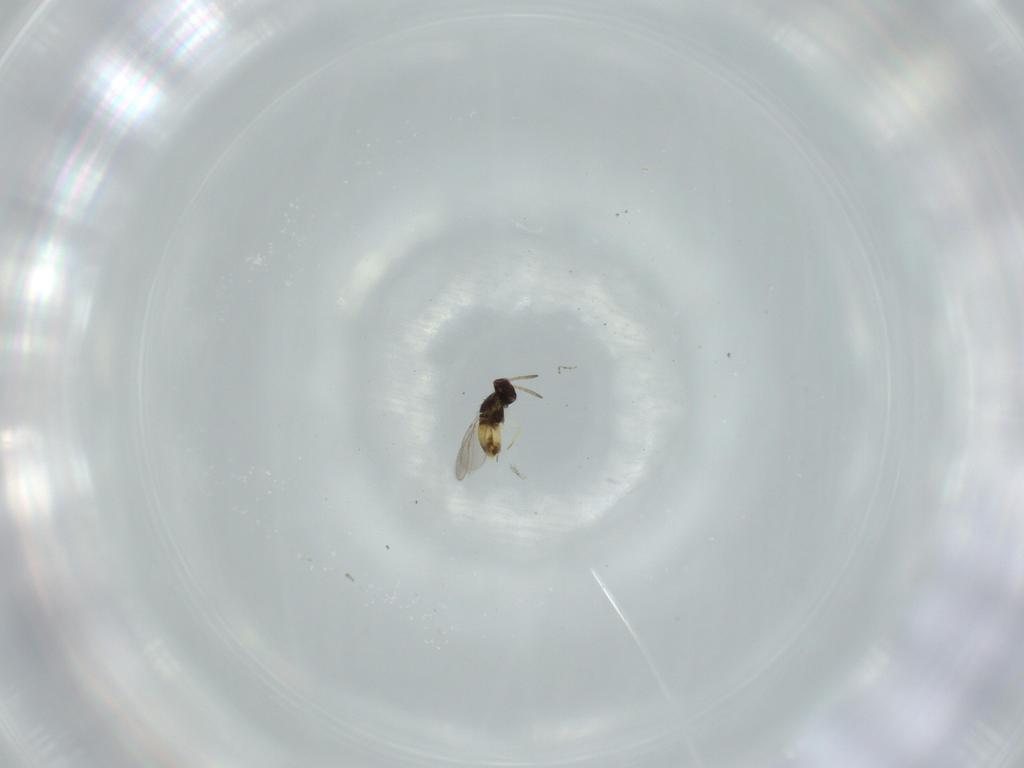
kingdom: Animalia
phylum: Arthropoda
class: Insecta
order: Hymenoptera
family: Aphelinidae
